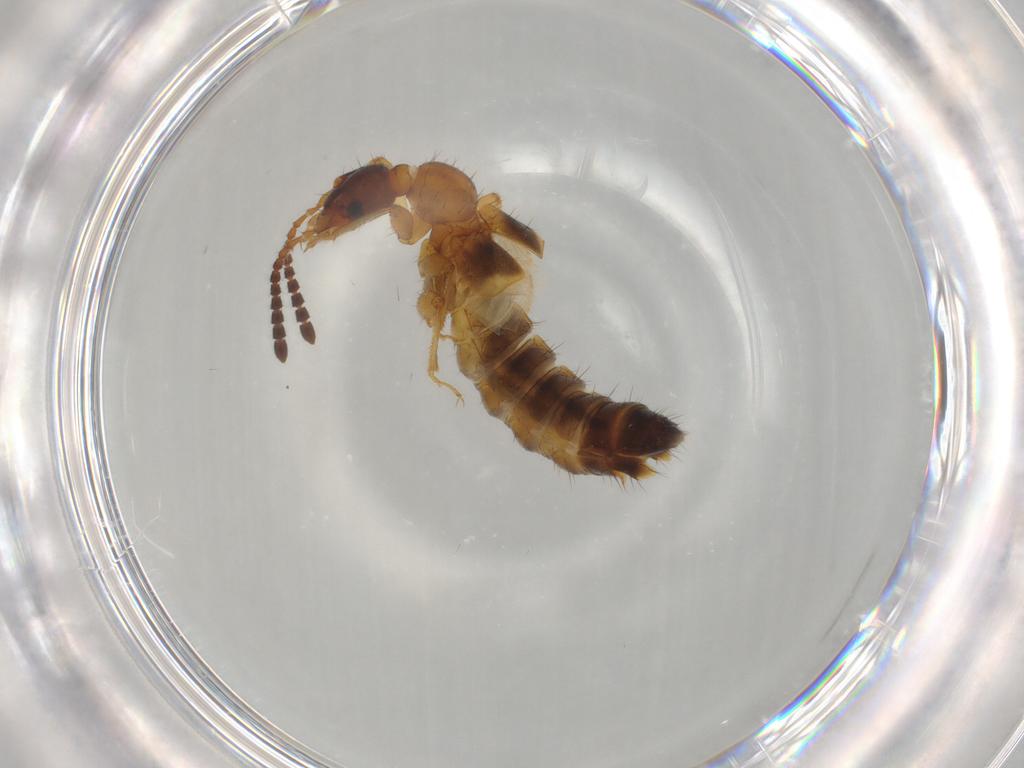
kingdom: Animalia
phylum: Arthropoda
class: Insecta
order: Coleoptera
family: Staphylinidae
